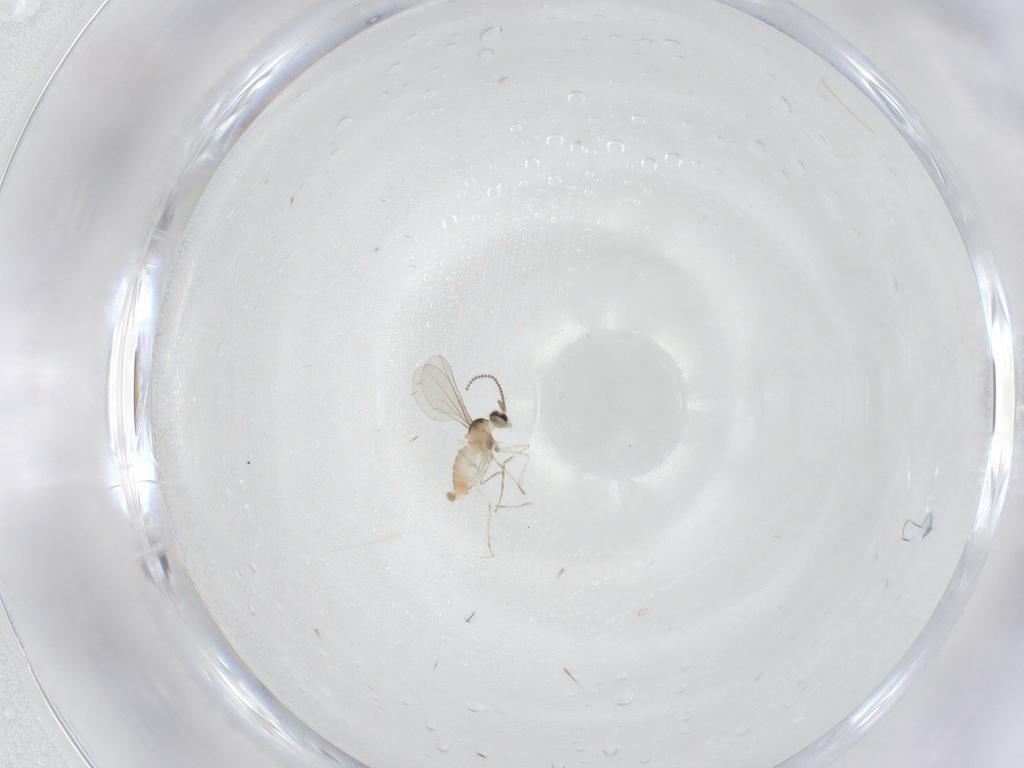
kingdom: Animalia
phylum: Arthropoda
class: Insecta
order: Diptera
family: Cecidomyiidae
